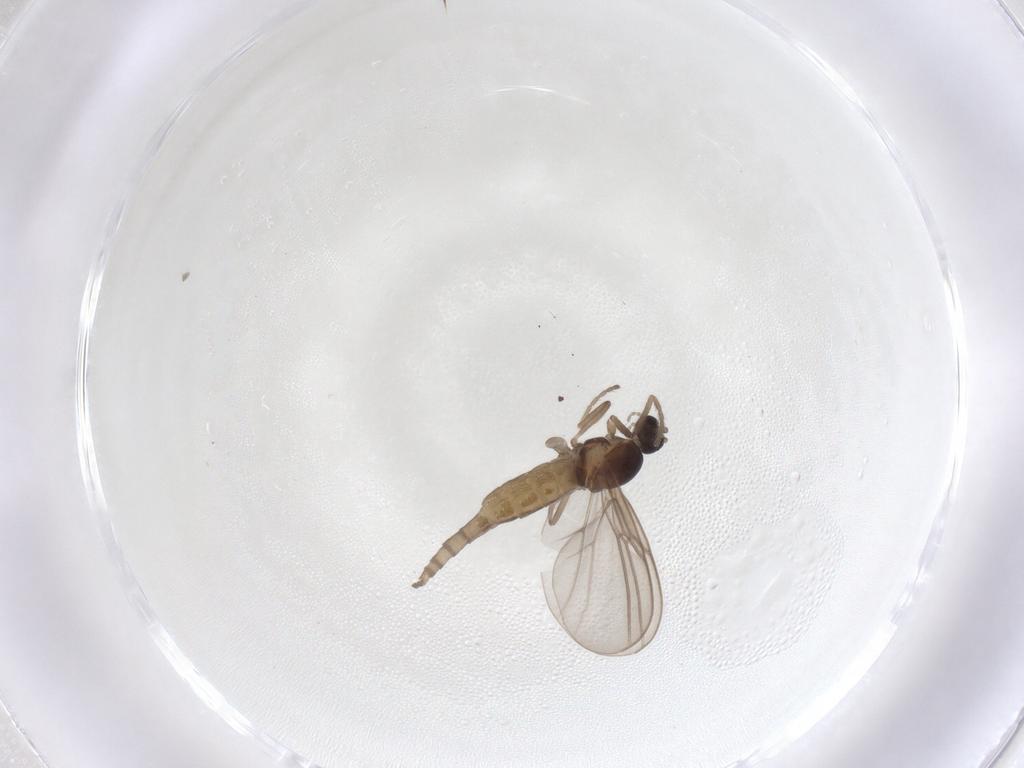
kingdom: Animalia
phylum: Arthropoda
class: Insecta
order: Diptera
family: Cecidomyiidae
